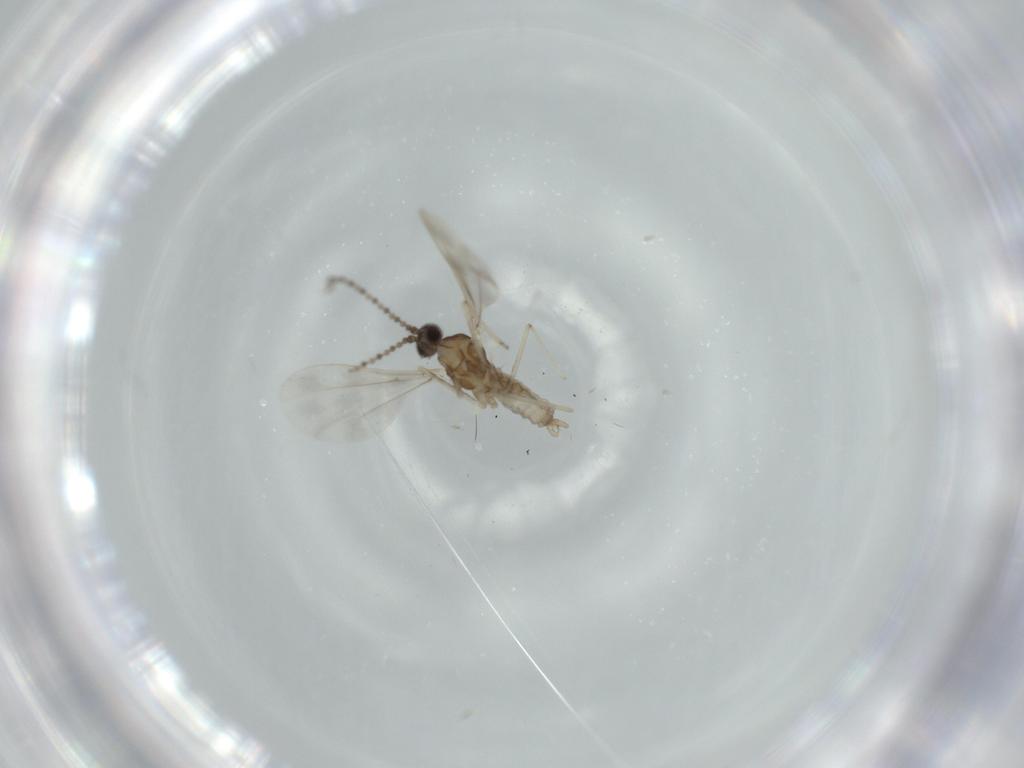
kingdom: Animalia
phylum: Arthropoda
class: Insecta
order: Diptera
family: Cecidomyiidae
